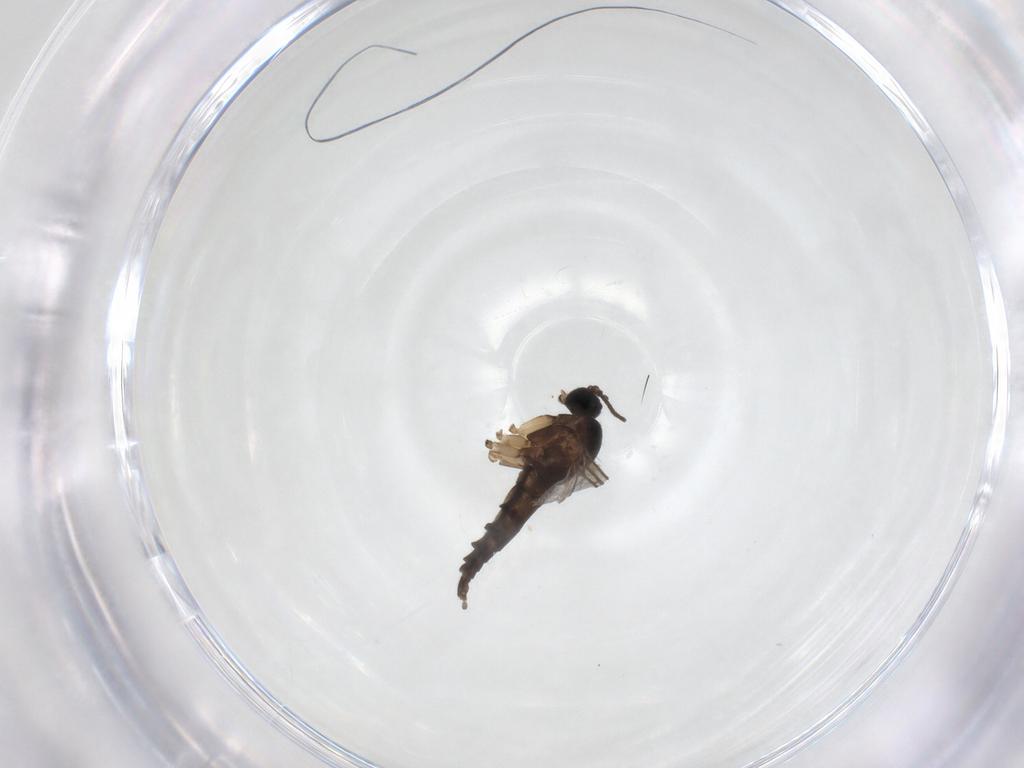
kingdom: Animalia
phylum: Arthropoda
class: Insecta
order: Diptera
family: Sciaridae
